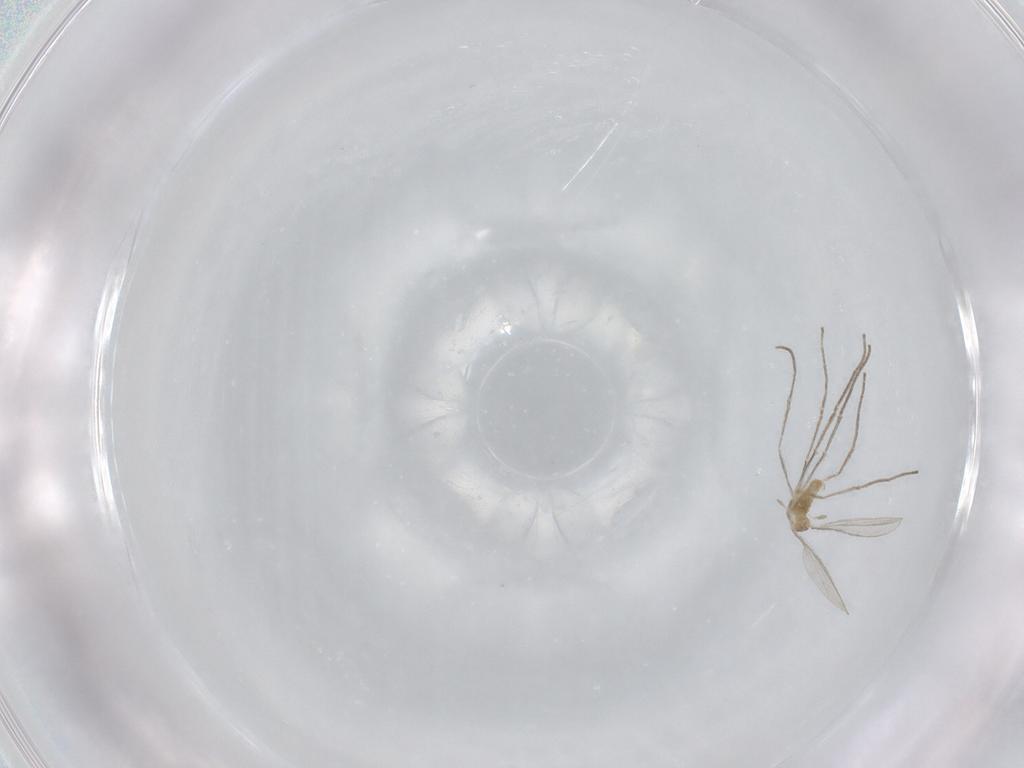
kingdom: Animalia
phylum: Arthropoda
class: Insecta
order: Diptera
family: Cecidomyiidae
